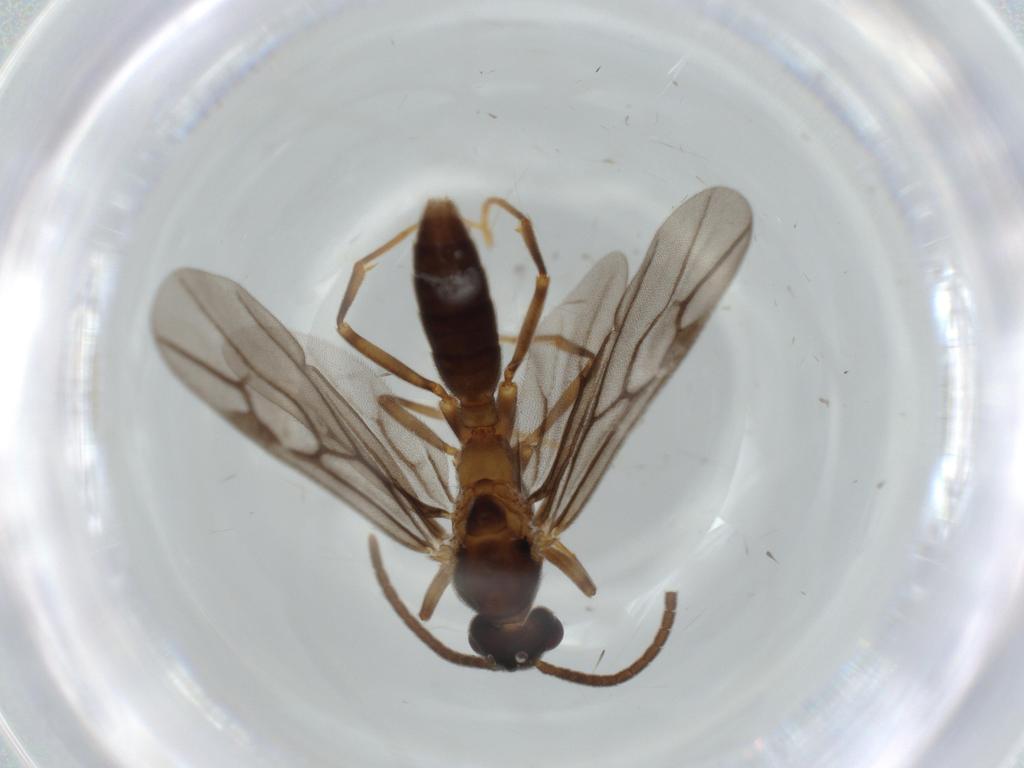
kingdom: Animalia
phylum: Arthropoda
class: Insecta
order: Hymenoptera
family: Formicidae
